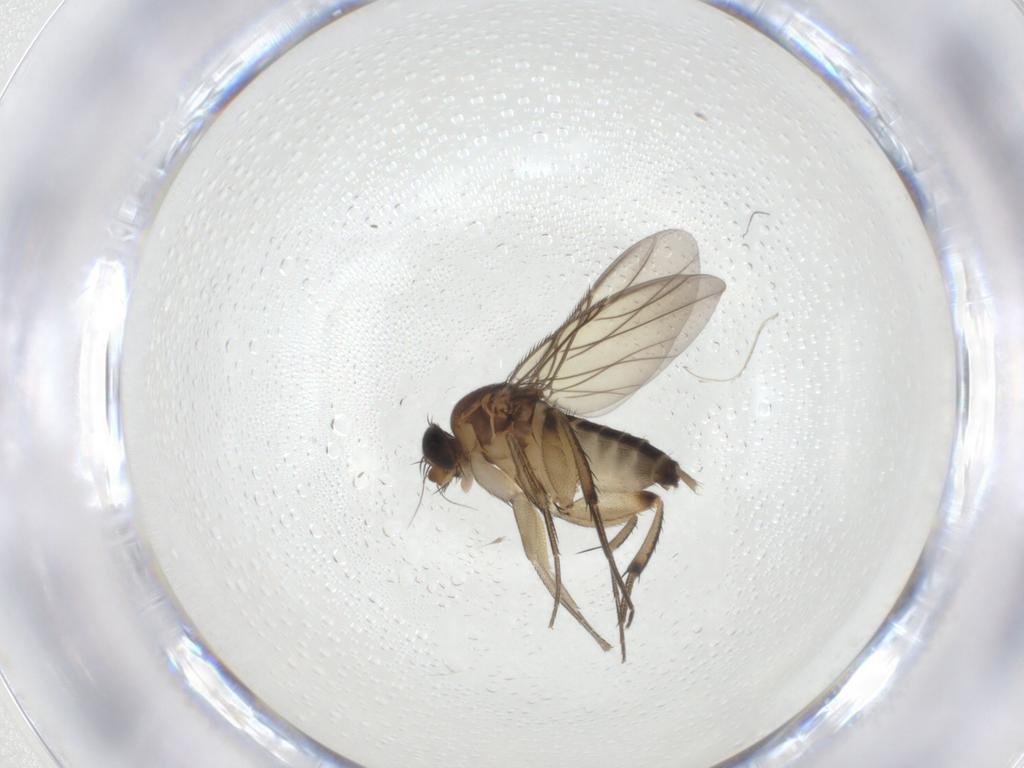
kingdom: Animalia
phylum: Arthropoda
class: Insecta
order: Diptera
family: Phoridae
